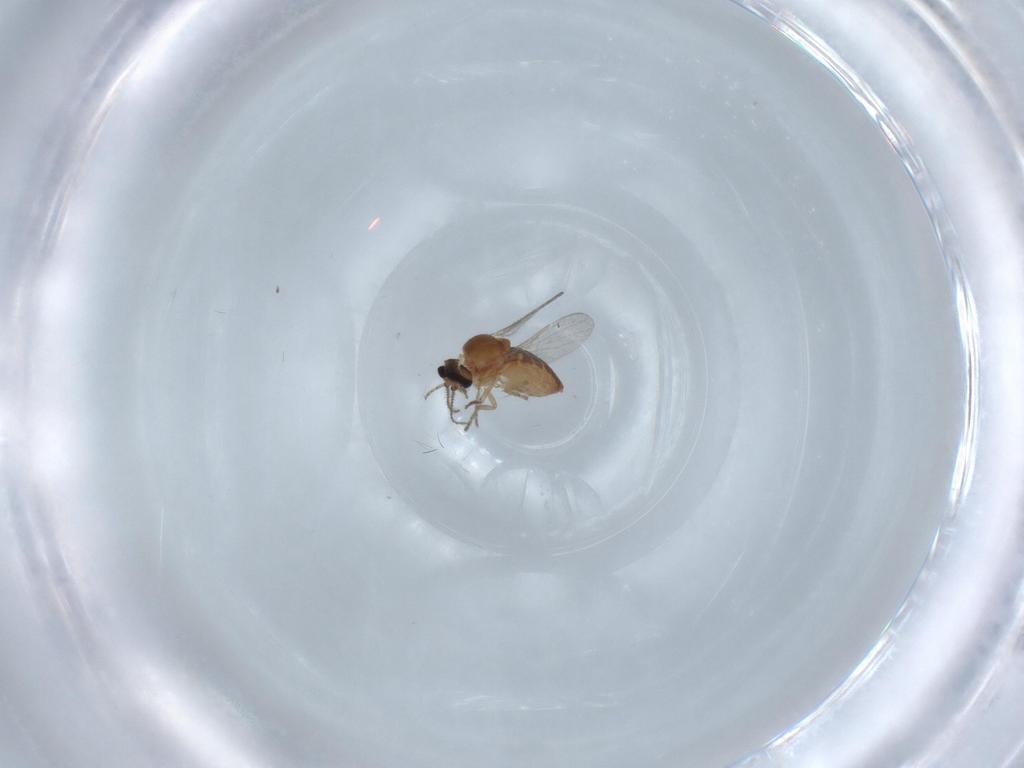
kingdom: Animalia
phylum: Arthropoda
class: Insecta
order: Diptera
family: Ceratopogonidae
